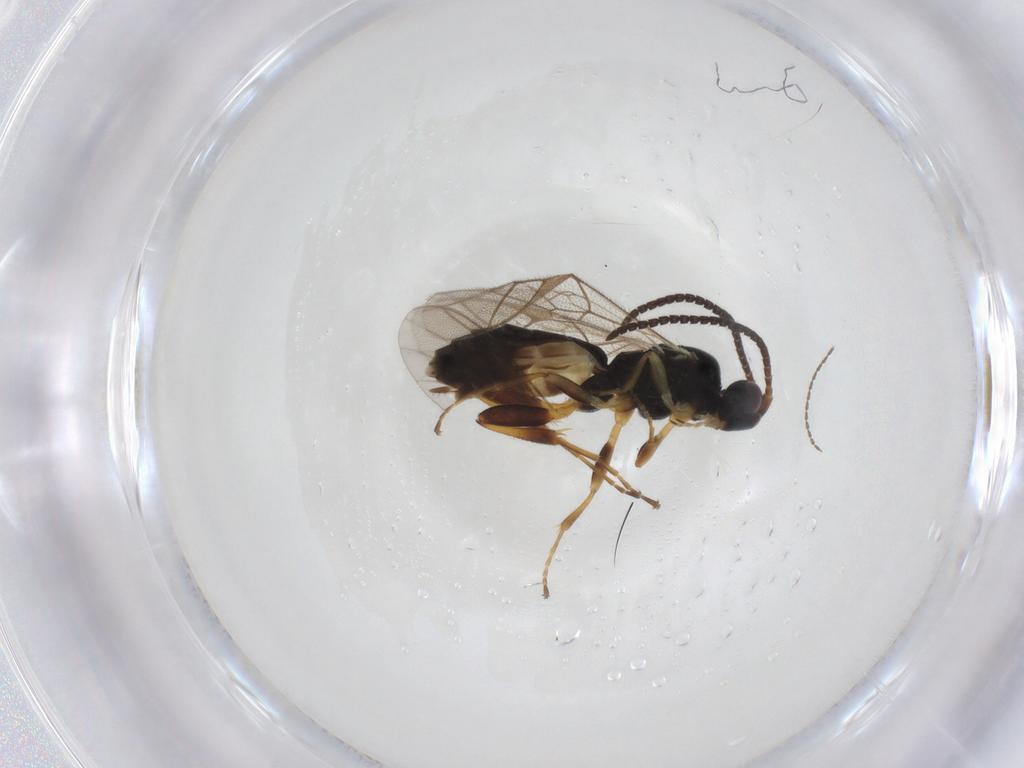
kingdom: Animalia
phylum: Arthropoda
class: Insecta
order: Hymenoptera
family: Ichneumonidae
